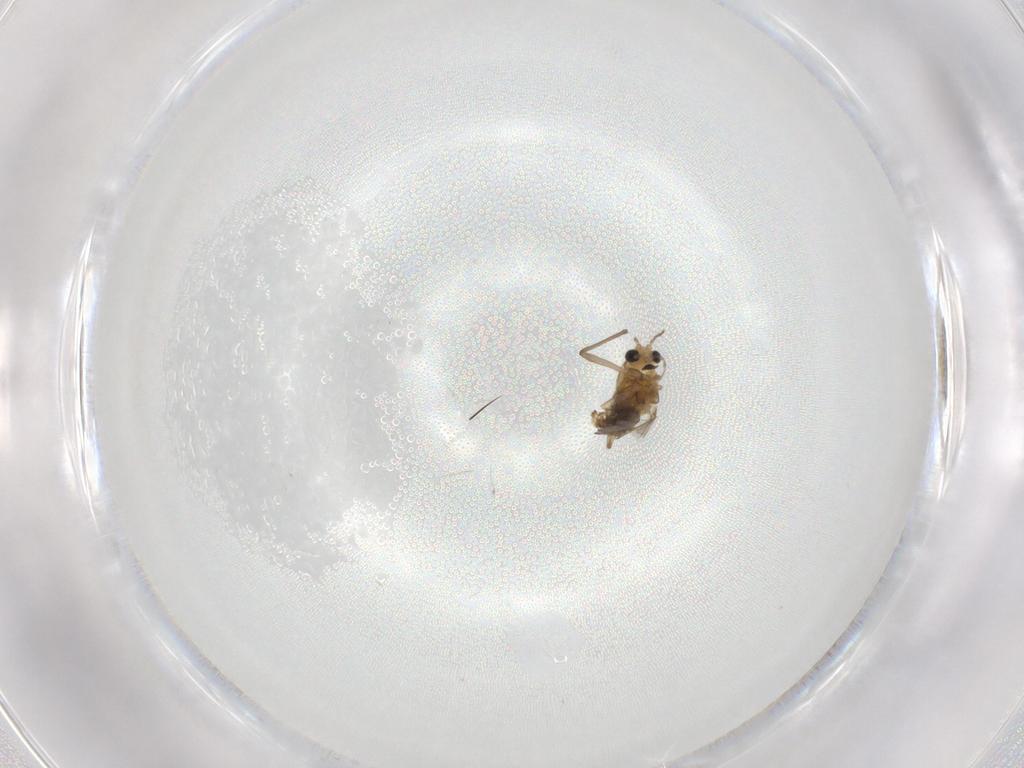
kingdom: Animalia
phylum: Arthropoda
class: Insecta
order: Diptera
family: Chironomidae
